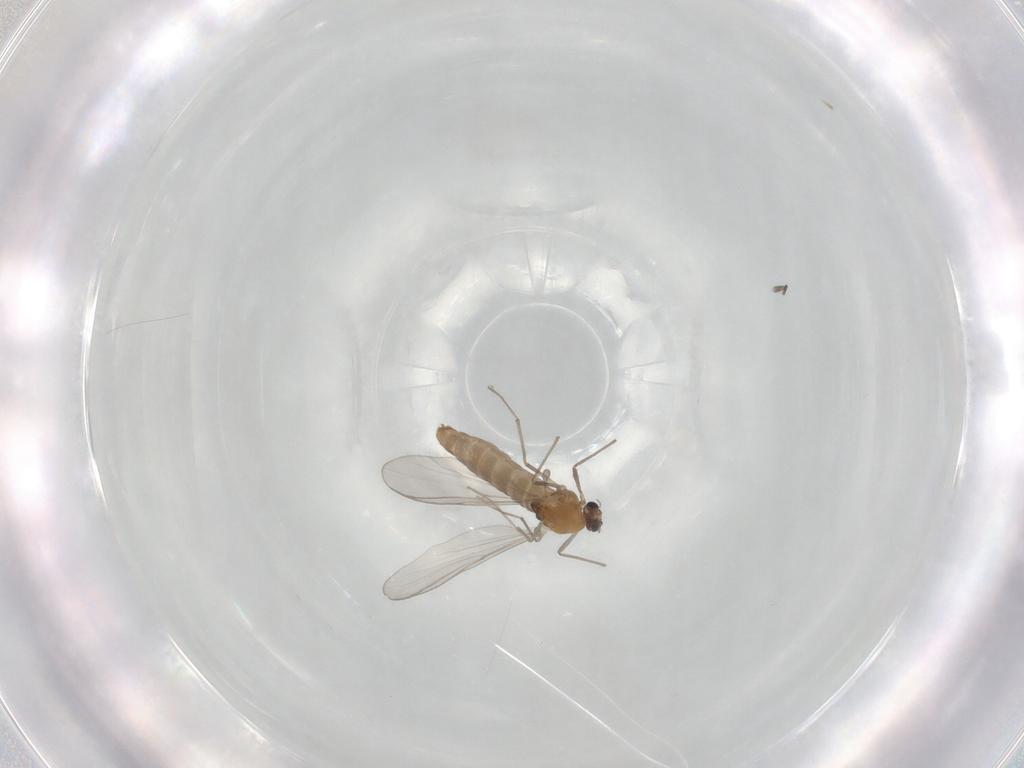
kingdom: Animalia
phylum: Arthropoda
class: Insecta
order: Diptera
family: Chironomidae
